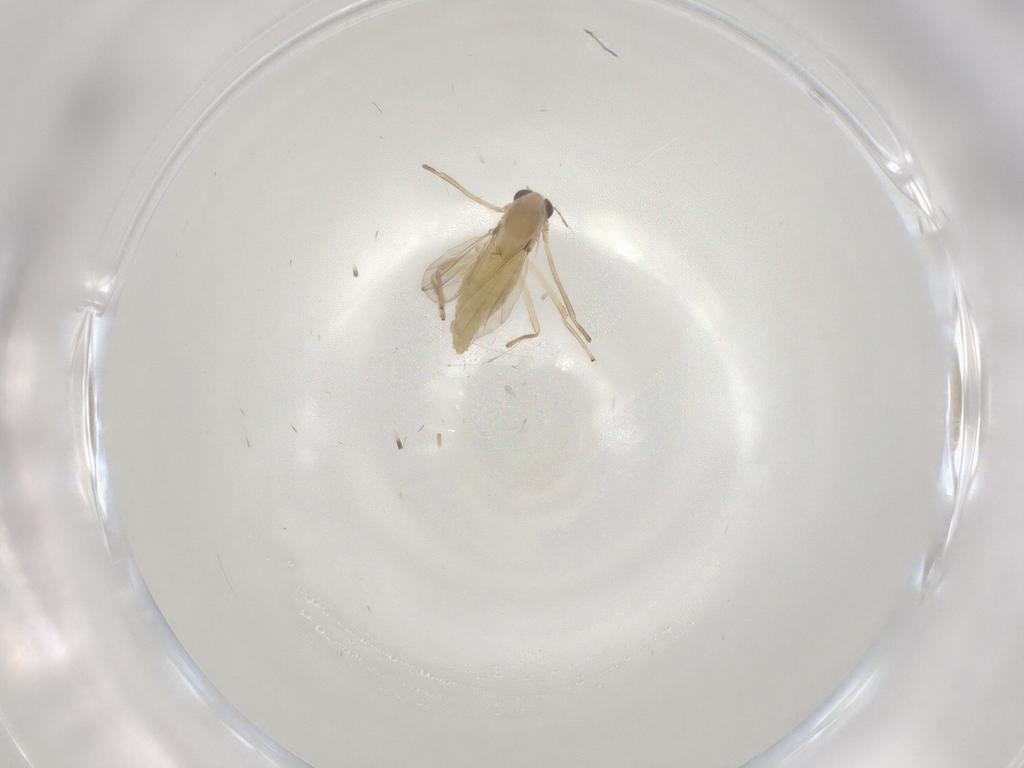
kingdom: Animalia
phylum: Arthropoda
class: Insecta
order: Diptera
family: Chironomidae
